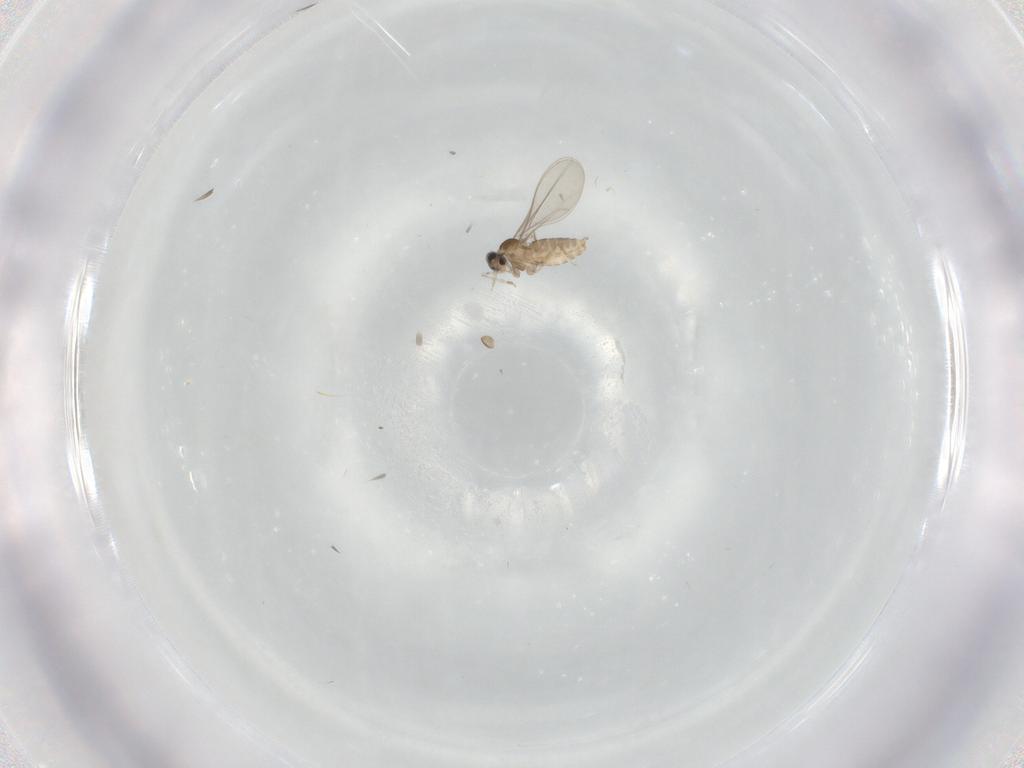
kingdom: Animalia
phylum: Arthropoda
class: Insecta
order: Diptera
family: Cecidomyiidae
